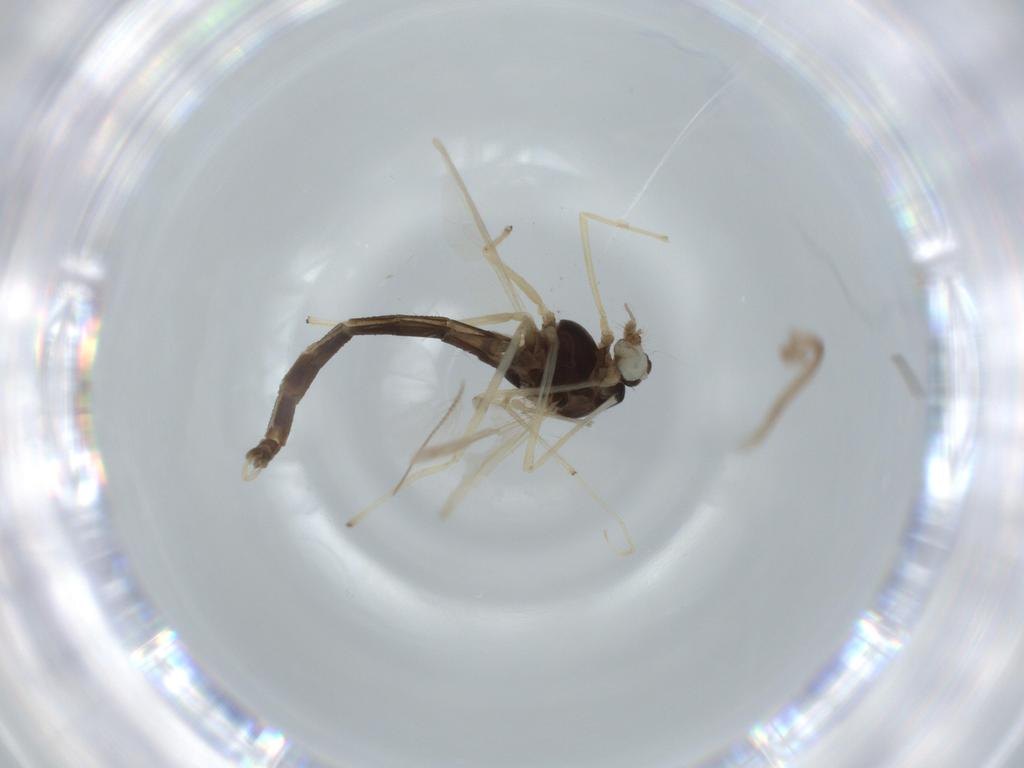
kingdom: Animalia
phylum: Arthropoda
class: Insecta
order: Diptera
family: Chironomidae
